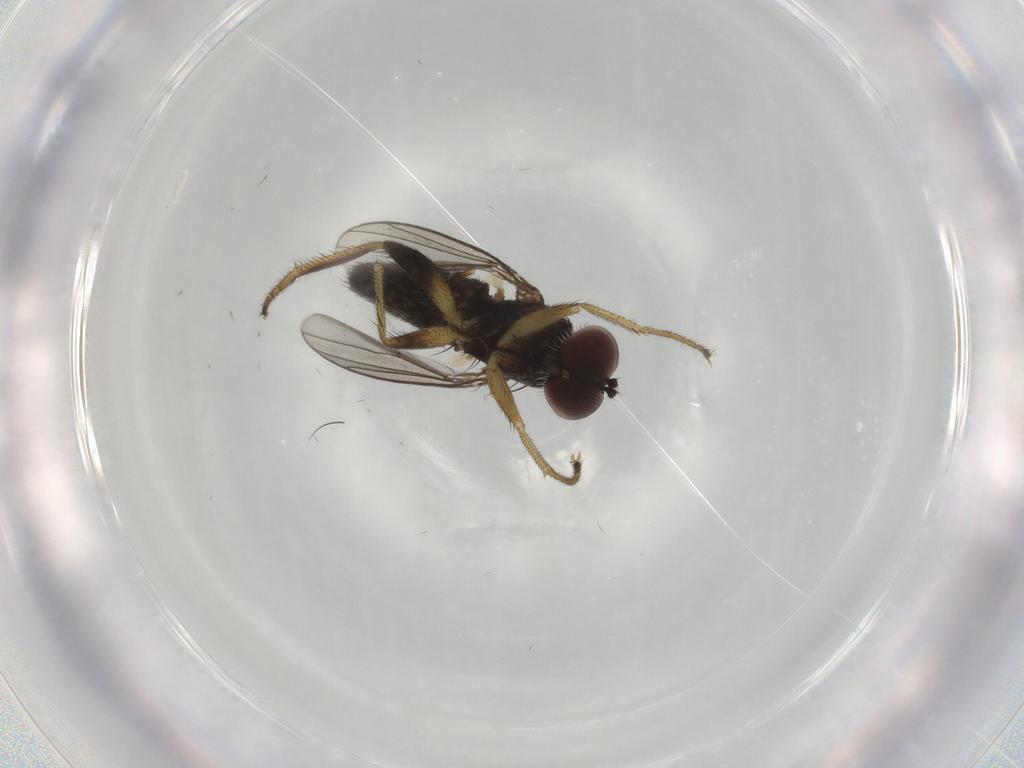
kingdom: Animalia
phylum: Arthropoda
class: Insecta
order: Diptera
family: Dolichopodidae
